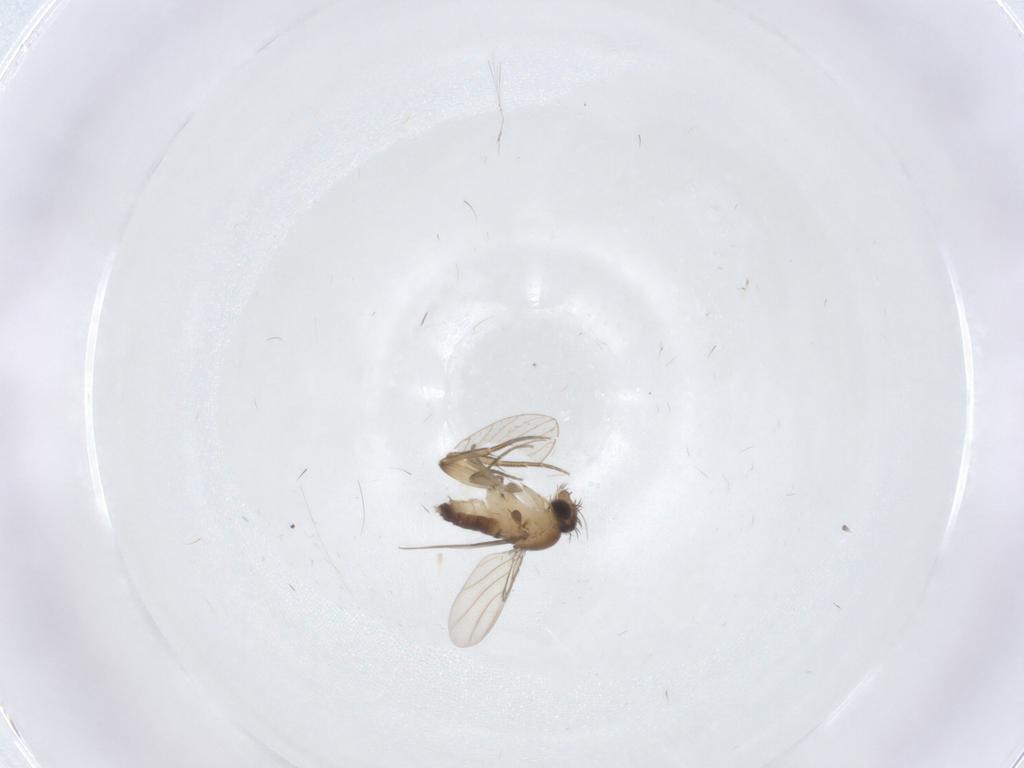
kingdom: Animalia
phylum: Arthropoda
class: Insecta
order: Diptera
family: Phoridae
